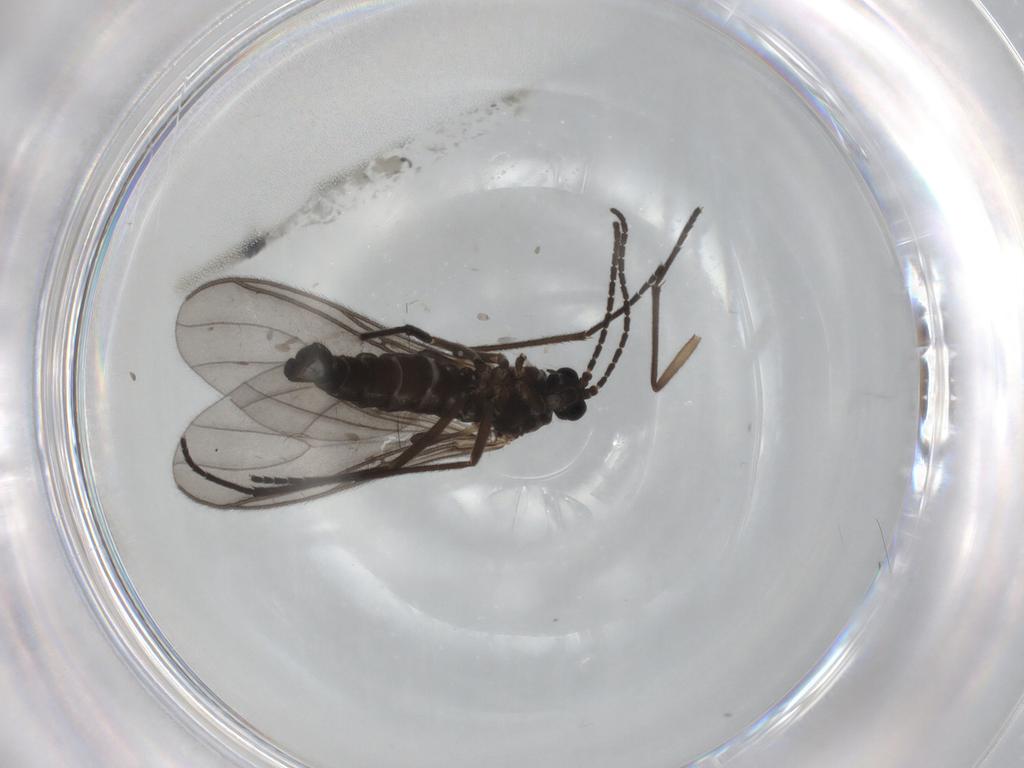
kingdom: Animalia
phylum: Arthropoda
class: Insecta
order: Diptera
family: Sciaridae
